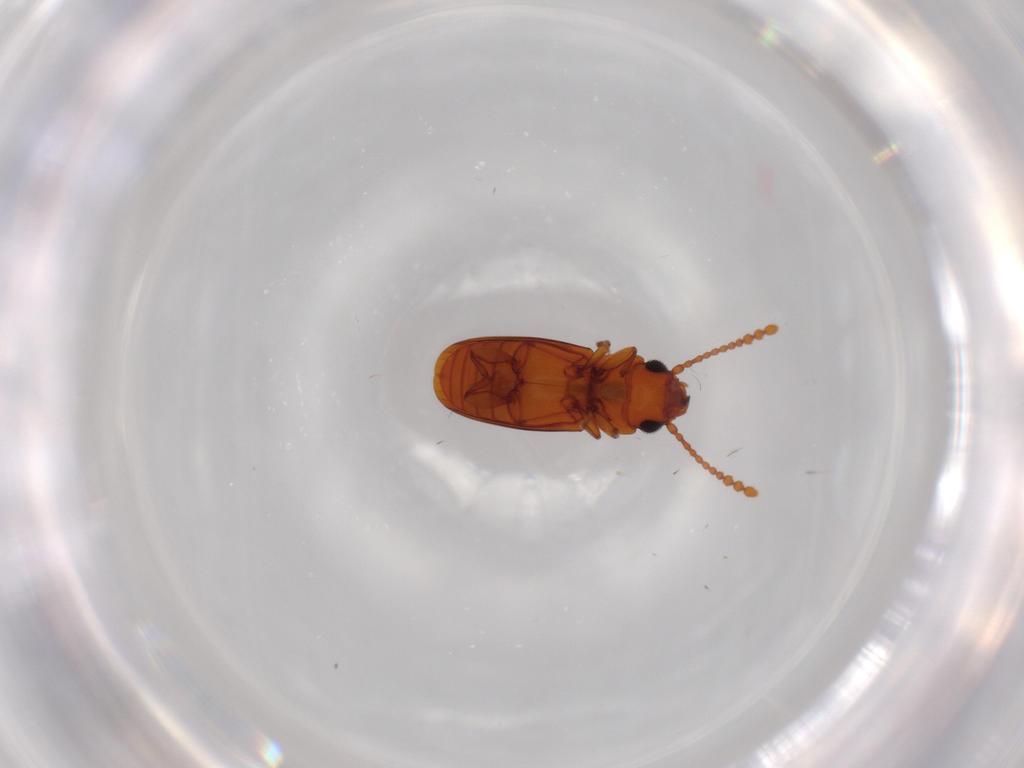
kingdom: Animalia
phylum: Arthropoda
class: Insecta
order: Coleoptera
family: Laemophloeidae
